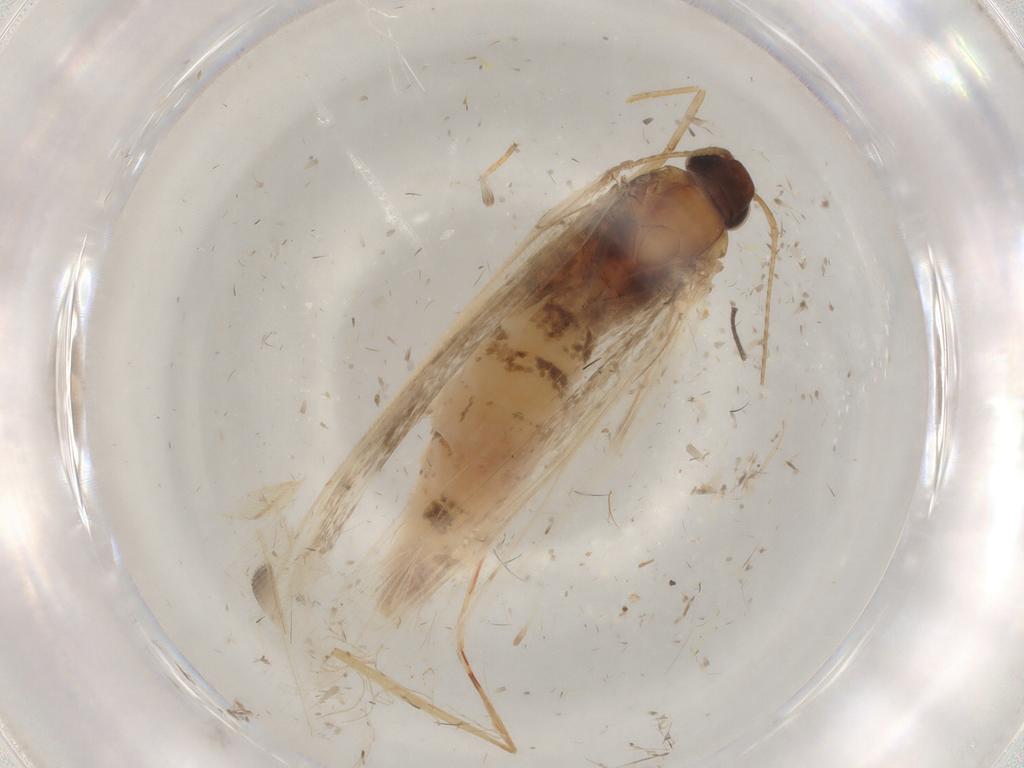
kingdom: Animalia
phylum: Arthropoda
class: Insecta
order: Lepidoptera
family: Gelechiidae
